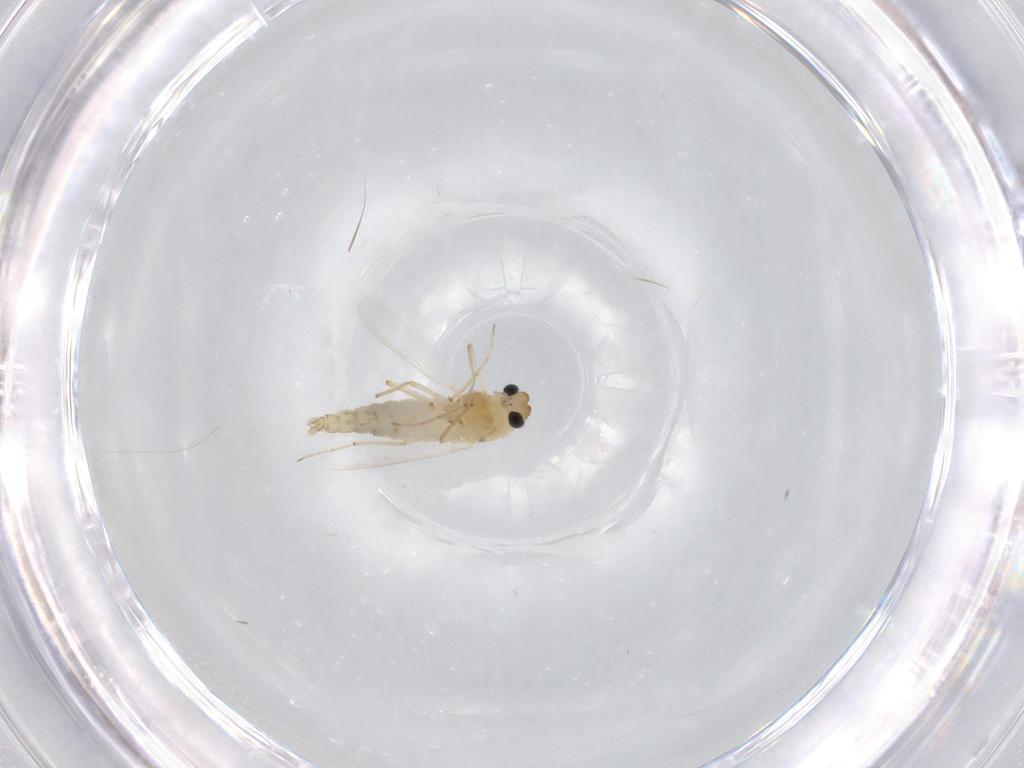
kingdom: Animalia
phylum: Arthropoda
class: Insecta
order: Diptera
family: Chironomidae
